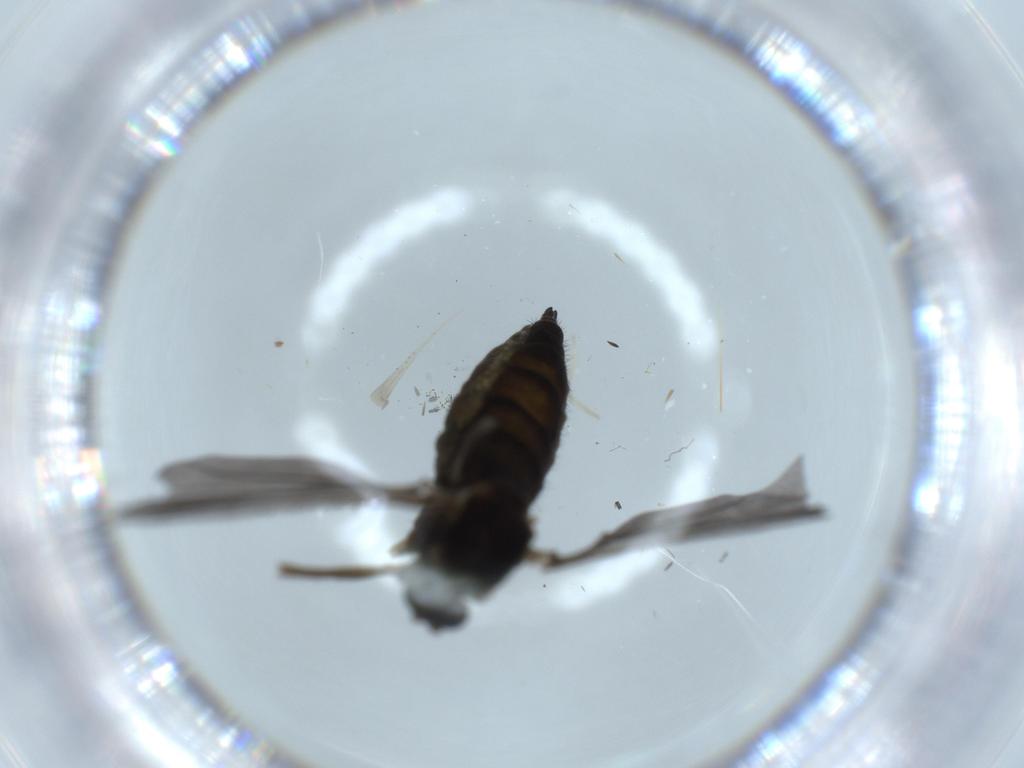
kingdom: Animalia
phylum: Arthropoda
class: Insecta
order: Diptera
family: Sciaridae
